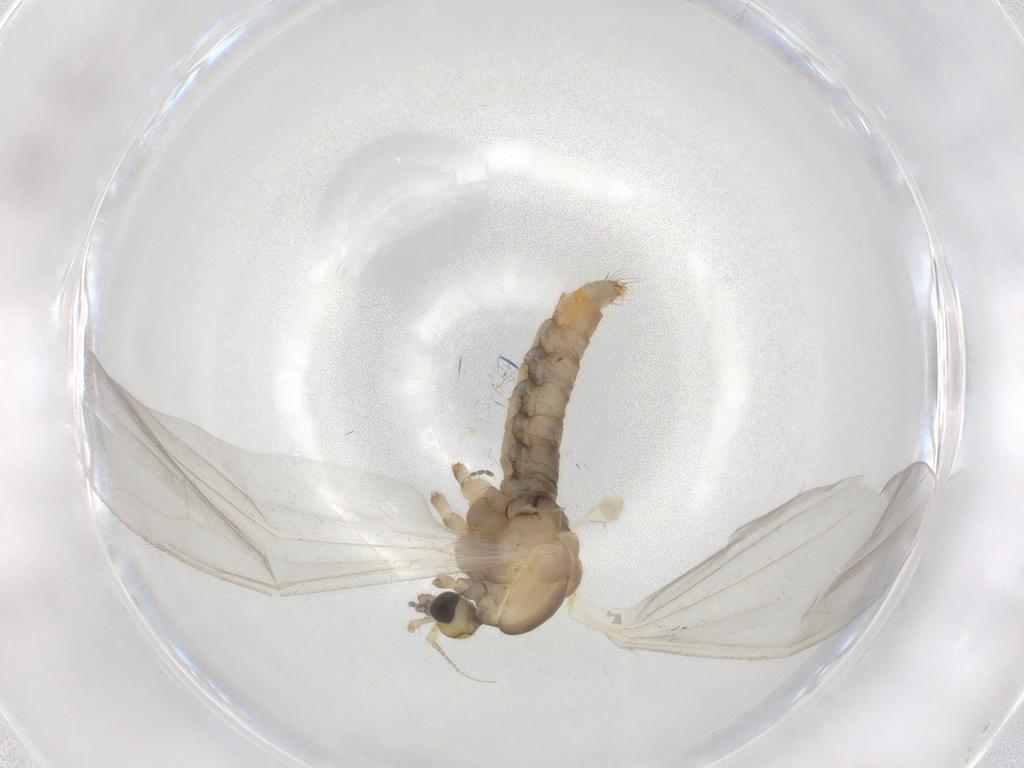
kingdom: Animalia
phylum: Arthropoda
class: Insecta
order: Diptera
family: Limoniidae
